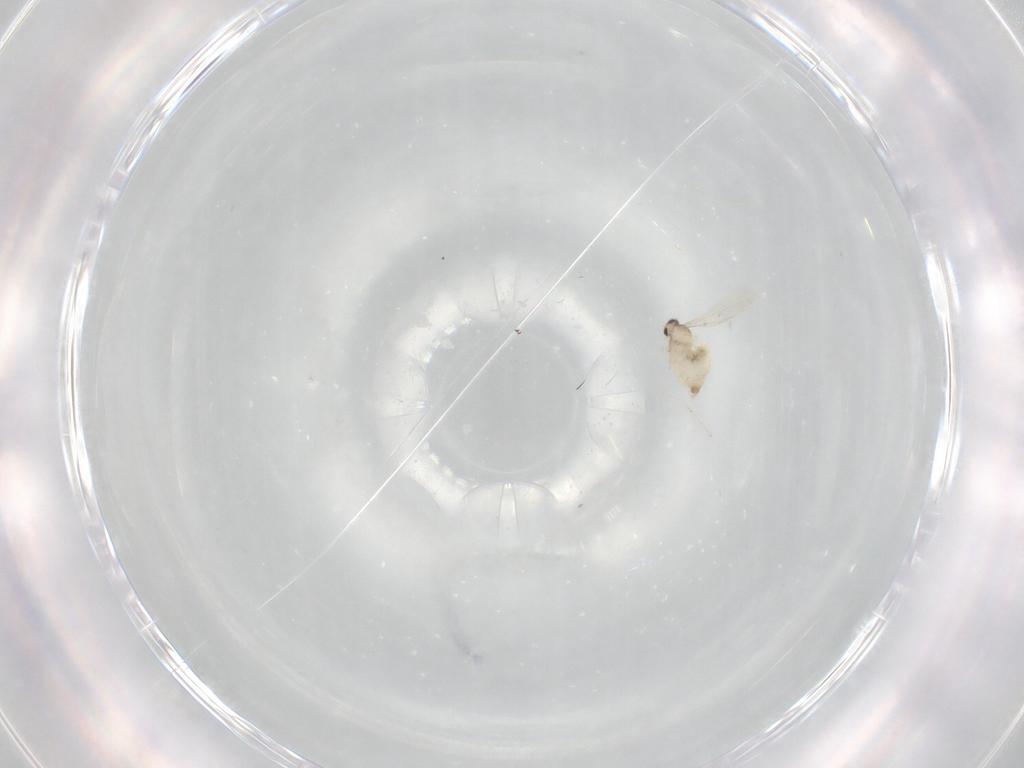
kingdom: Animalia
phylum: Arthropoda
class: Insecta
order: Diptera
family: Cecidomyiidae
